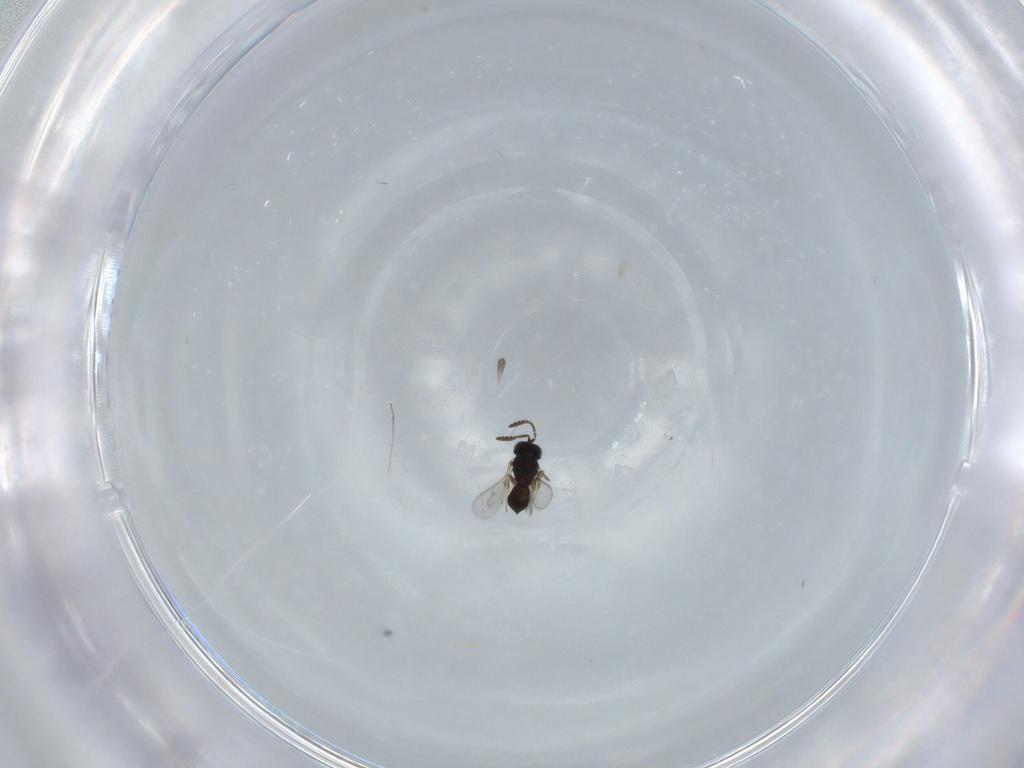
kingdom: Animalia
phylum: Arthropoda
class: Insecta
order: Hymenoptera
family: Scelionidae
